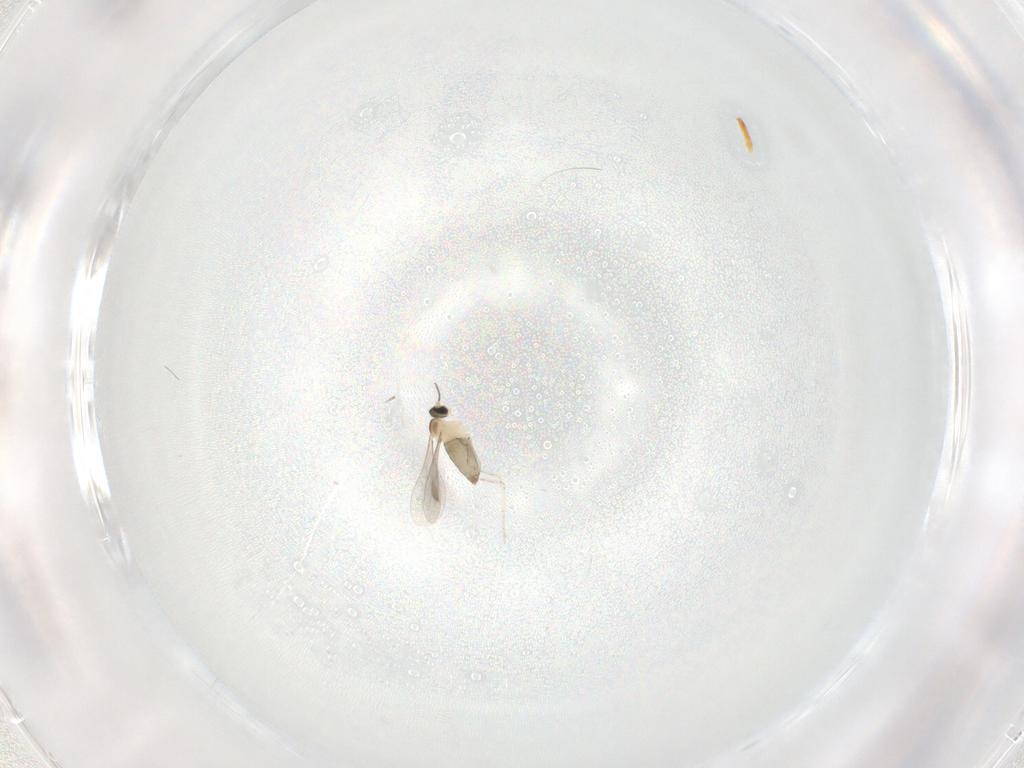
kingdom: Animalia
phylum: Arthropoda
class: Insecta
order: Diptera
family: Cecidomyiidae
